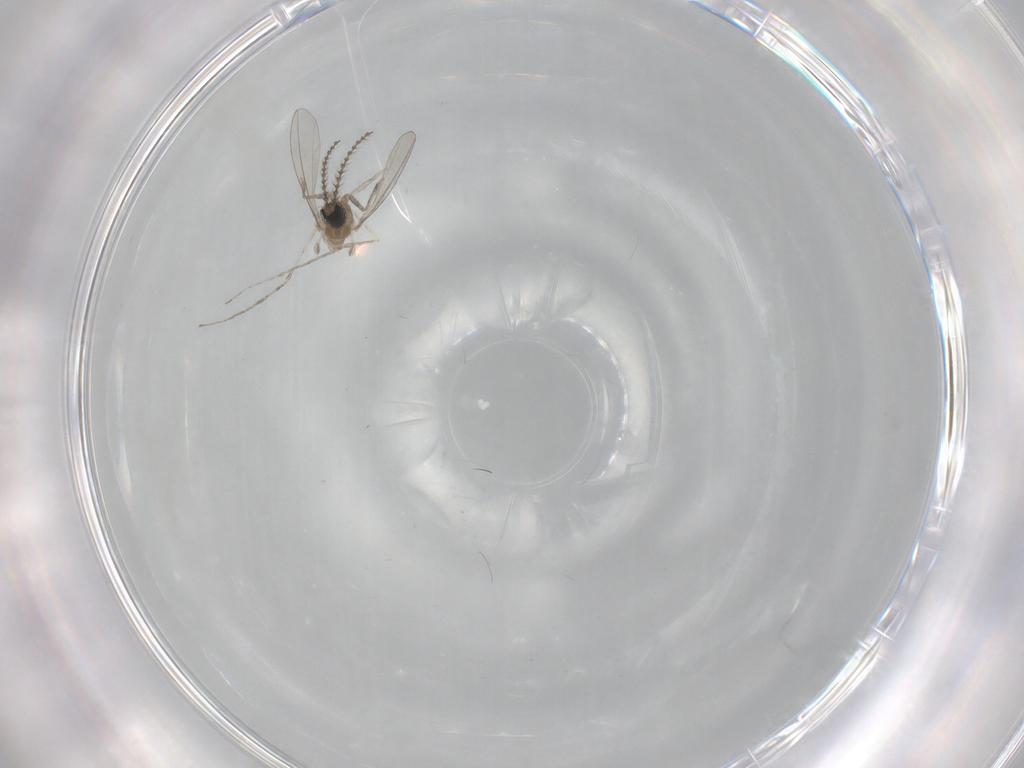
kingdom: Animalia
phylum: Arthropoda
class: Insecta
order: Diptera
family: Cecidomyiidae
